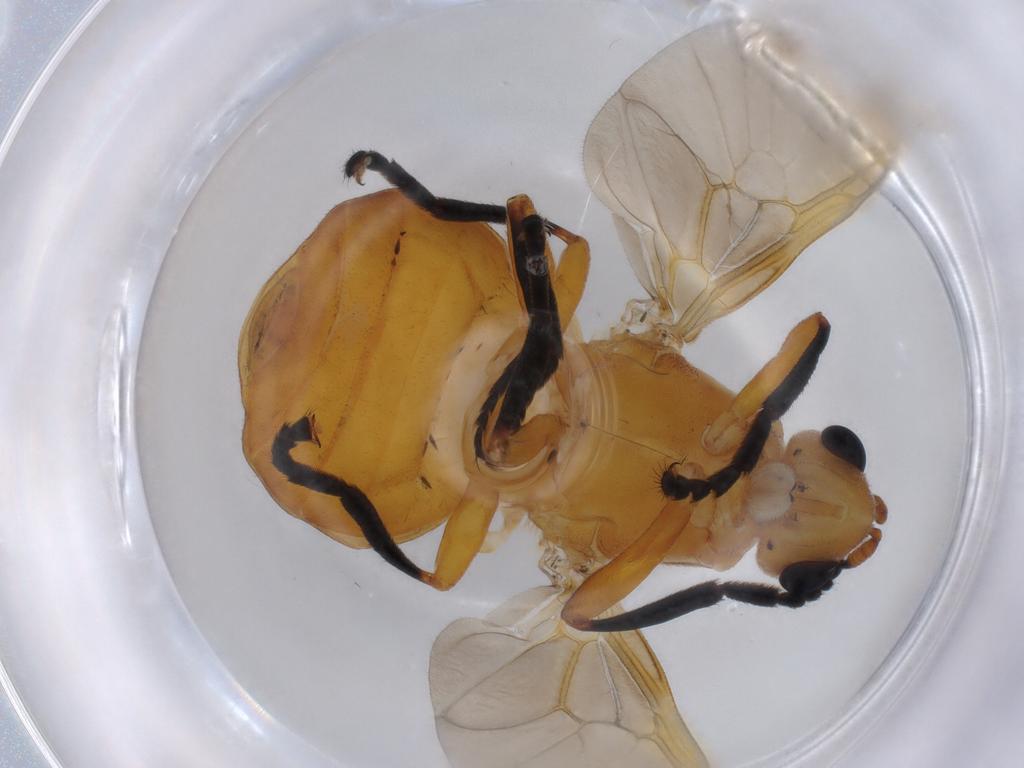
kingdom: Animalia
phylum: Arthropoda
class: Insecta
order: Diptera
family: Stratiomyidae
